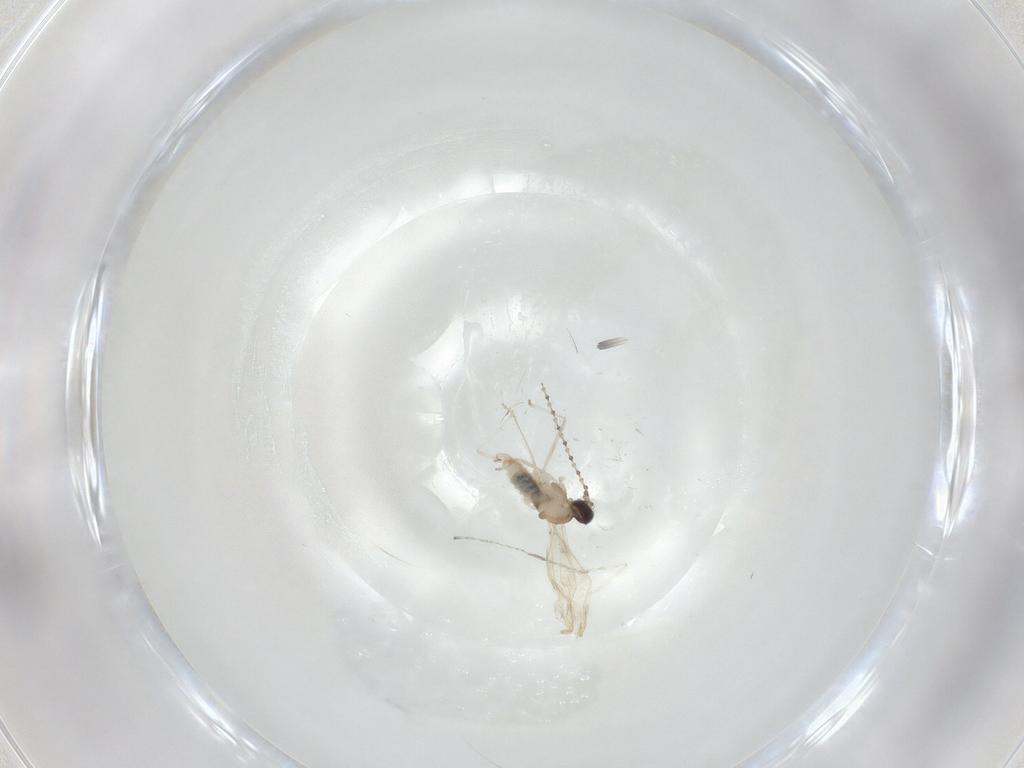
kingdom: Animalia
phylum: Arthropoda
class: Insecta
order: Diptera
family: Cecidomyiidae
